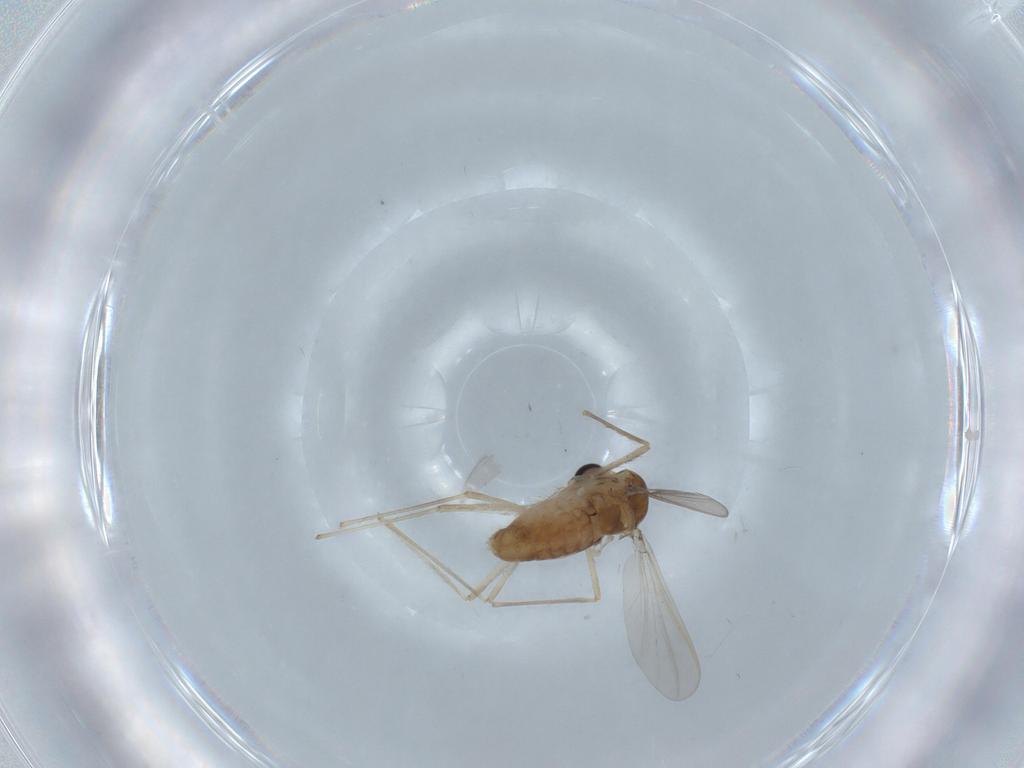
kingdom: Animalia
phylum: Arthropoda
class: Insecta
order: Diptera
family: Chironomidae
